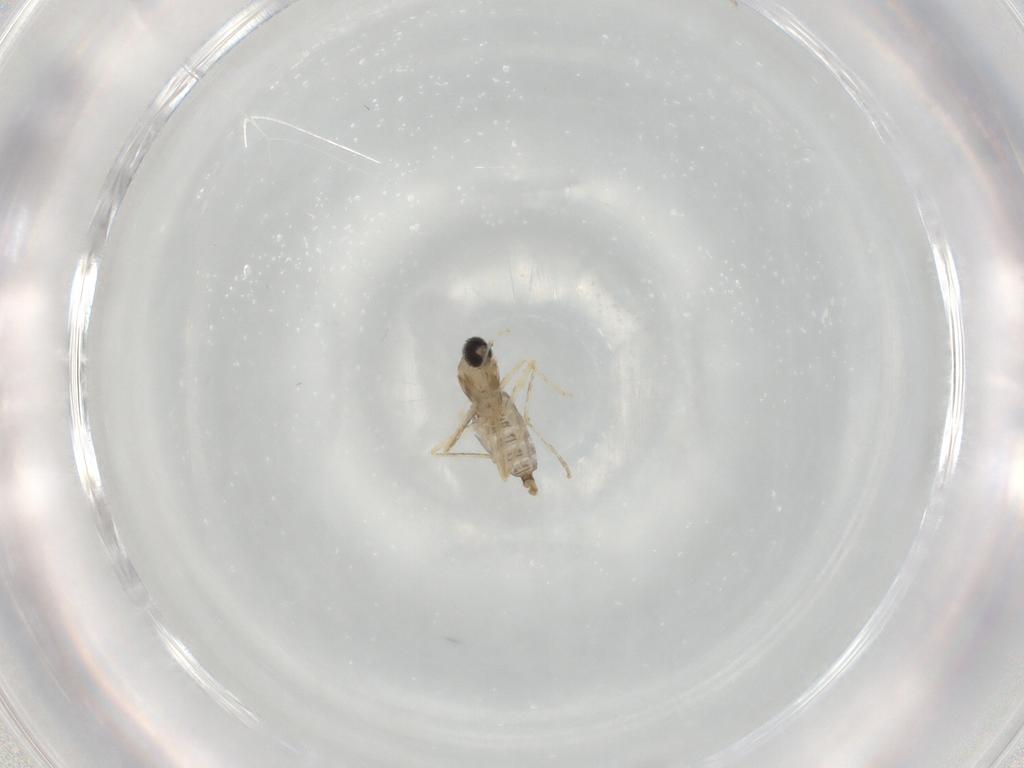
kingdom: Animalia
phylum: Arthropoda
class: Insecta
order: Diptera
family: Cecidomyiidae
